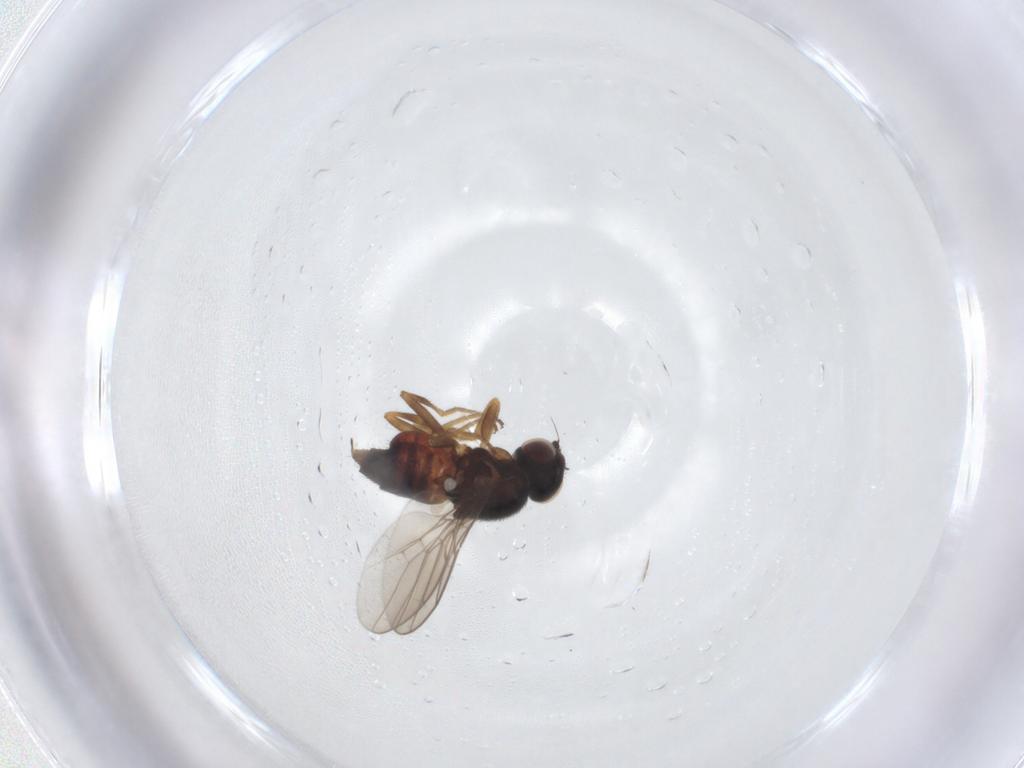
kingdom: Animalia
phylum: Arthropoda
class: Insecta
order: Diptera
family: Chloropidae
